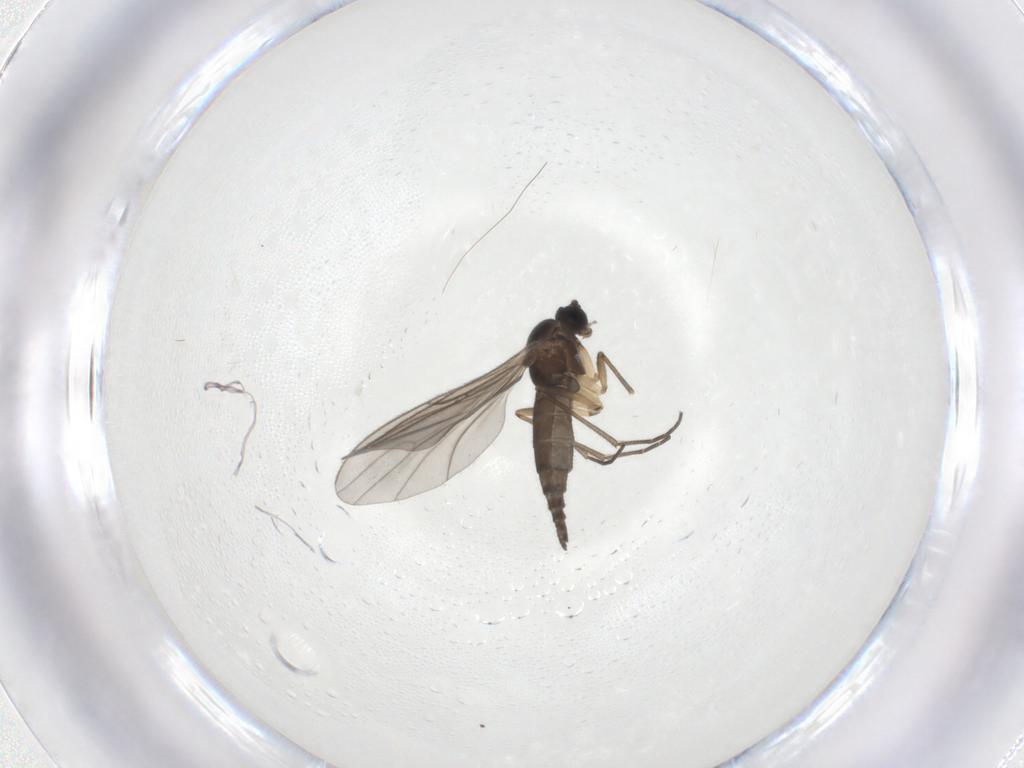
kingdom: Animalia
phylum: Arthropoda
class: Insecta
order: Diptera
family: Sciaridae
